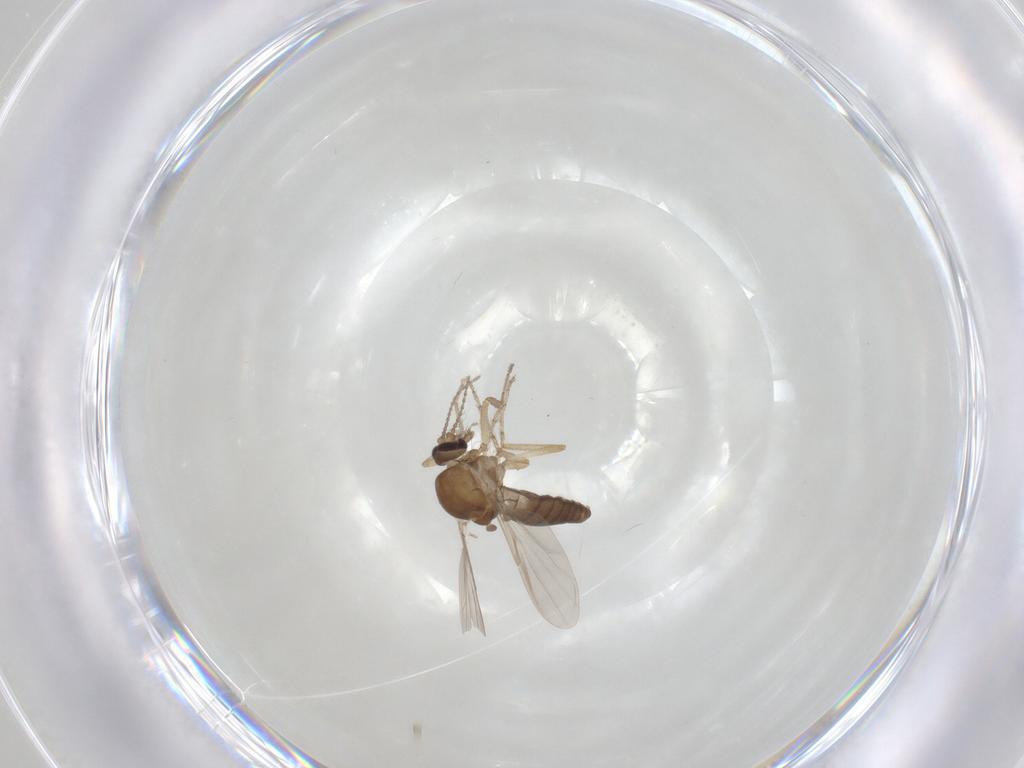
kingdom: Animalia
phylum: Arthropoda
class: Insecta
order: Diptera
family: Ceratopogonidae
